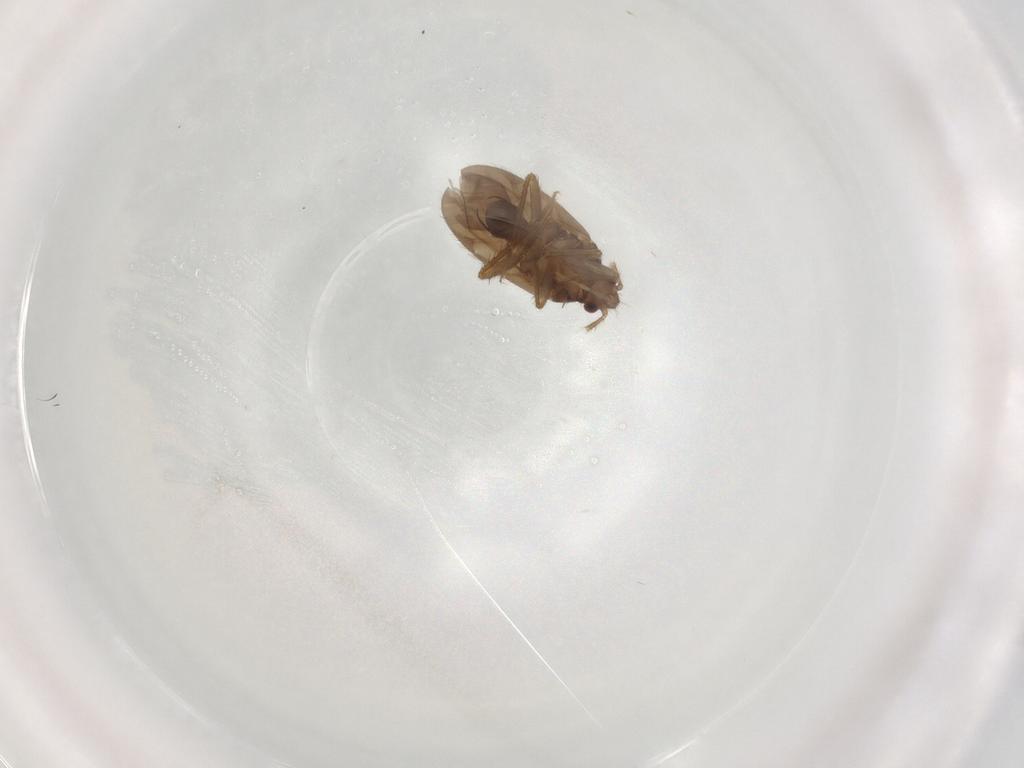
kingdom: Animalia
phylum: Arthropoda
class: Insecta
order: Hemiptera
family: Ceratocombidae
